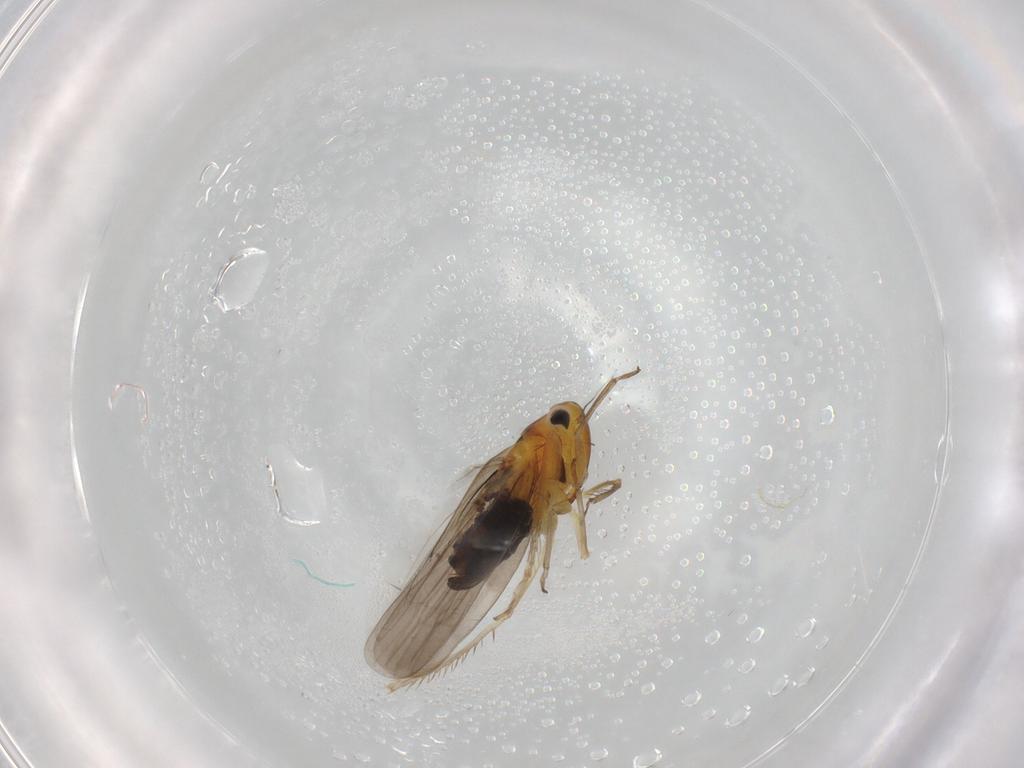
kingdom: Animalia
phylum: Arthropoda
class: Insecta
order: Hemiptera
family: Cicadellidae
